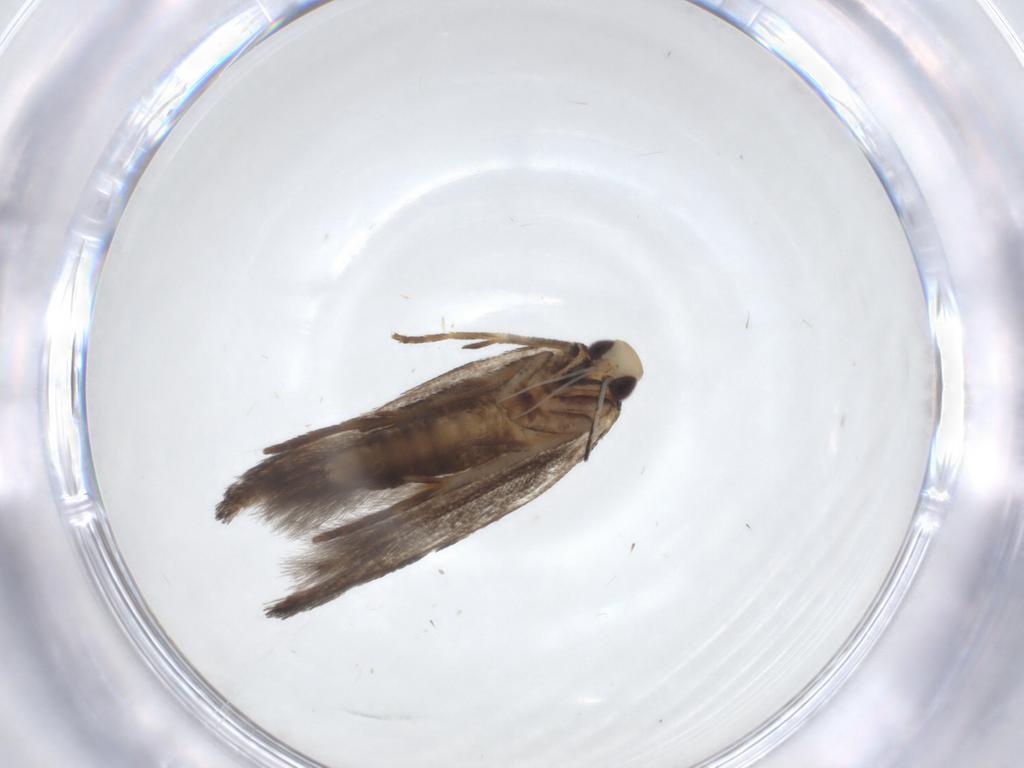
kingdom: Animalia
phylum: Arthropoda
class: Insecta
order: Lepidoptera
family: Cosmopterigidae
